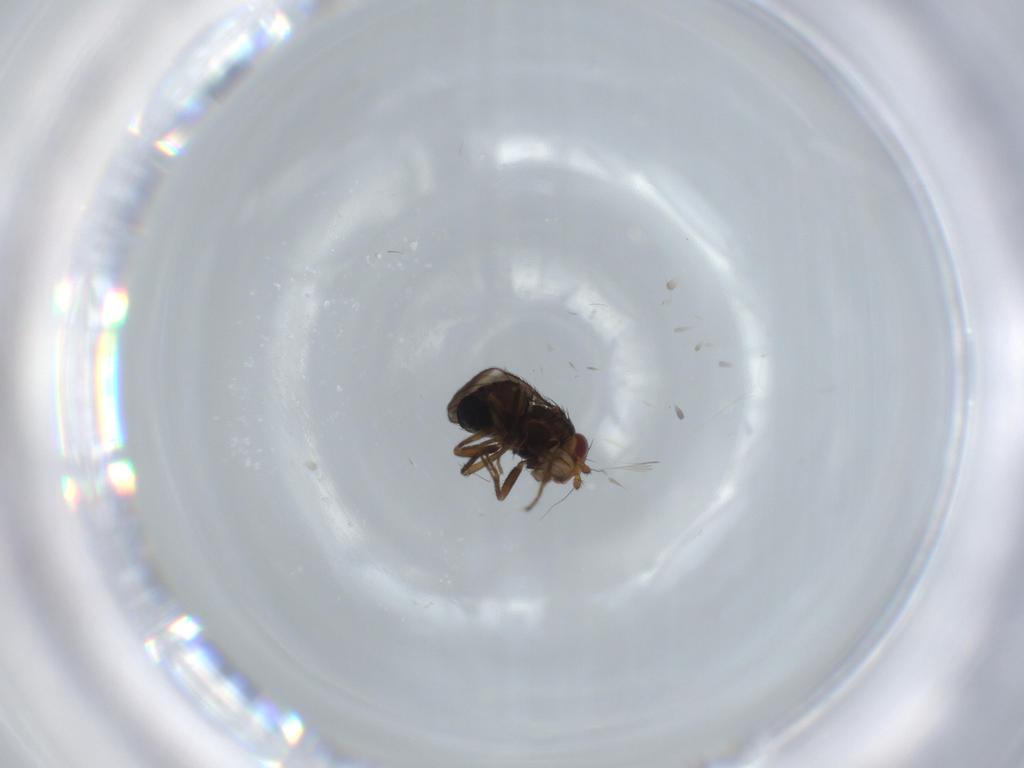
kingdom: Animalia
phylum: Arthropoda
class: Insecta
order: Diptera
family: Sphaeroceridae
